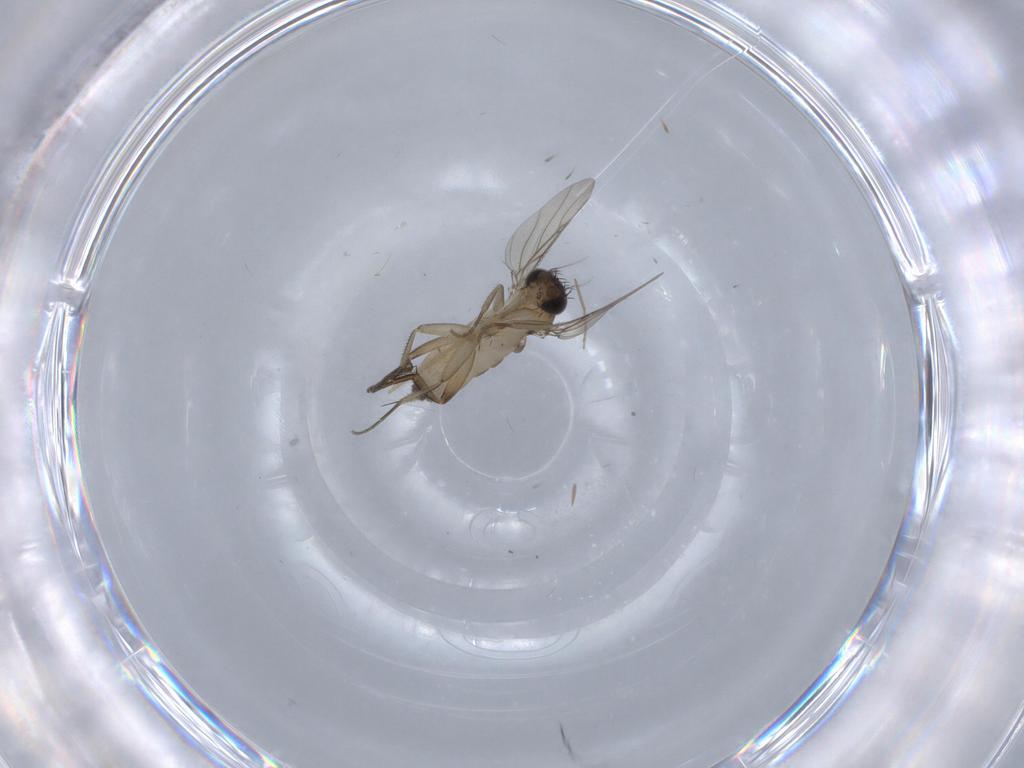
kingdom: Animalia
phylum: Arthropoda
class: Insecta
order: Diptera
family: Phoridae
